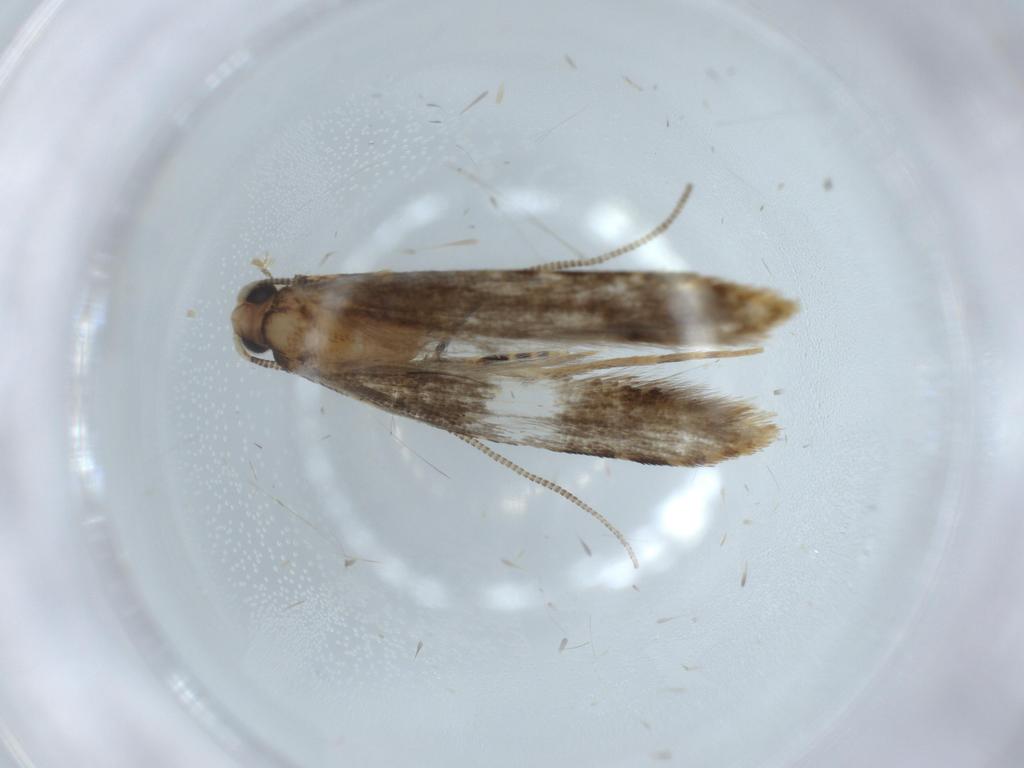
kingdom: Animalia
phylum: Arthropoda
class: Insecta
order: Lepidoptera
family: Tineidae
